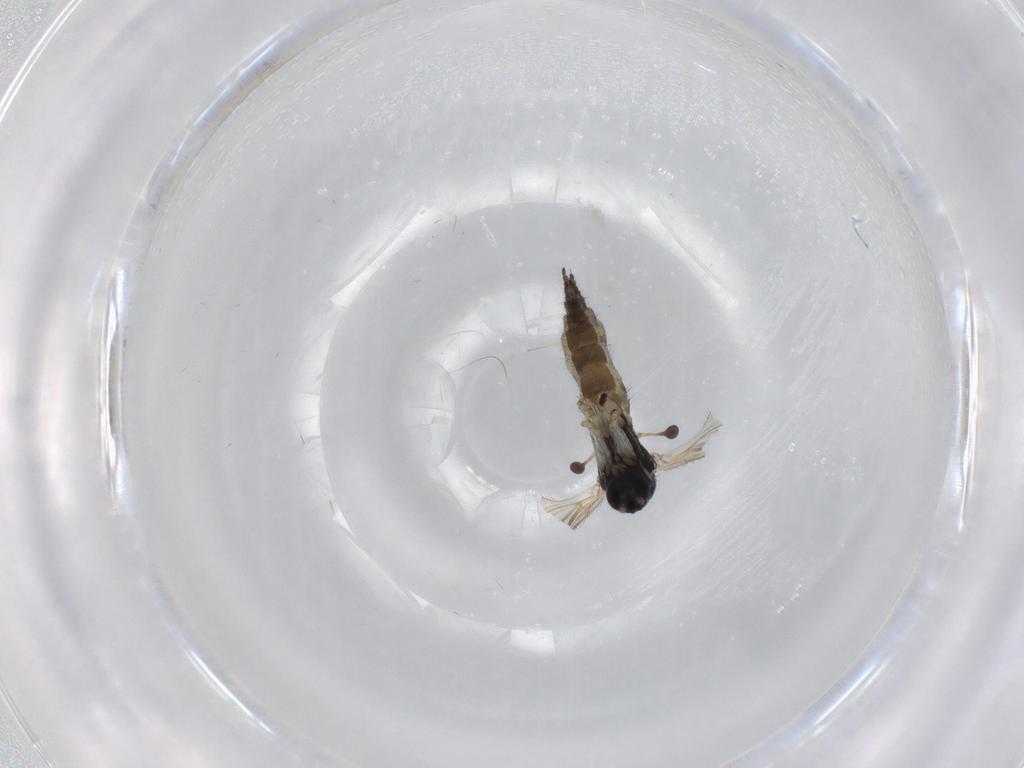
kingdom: Animalia
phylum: Arthropoda
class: Insecta
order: Diptera
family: Sciaridae
